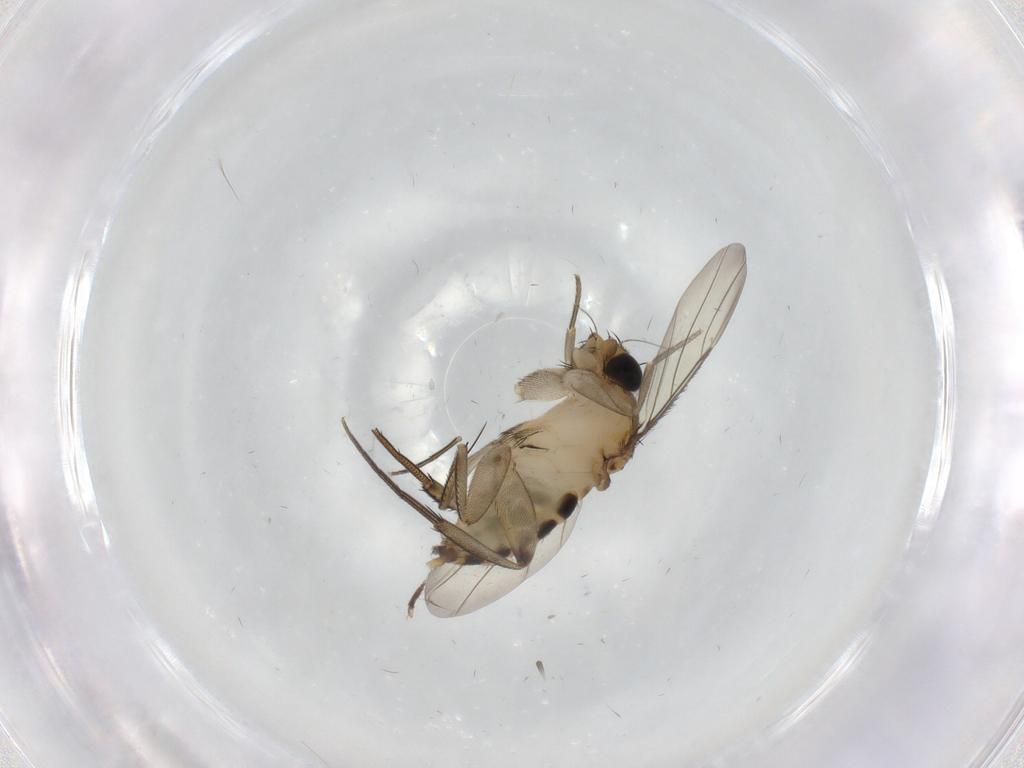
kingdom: Animalia
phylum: Arthropoda
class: Insecta
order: Diptera
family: Phoridae
